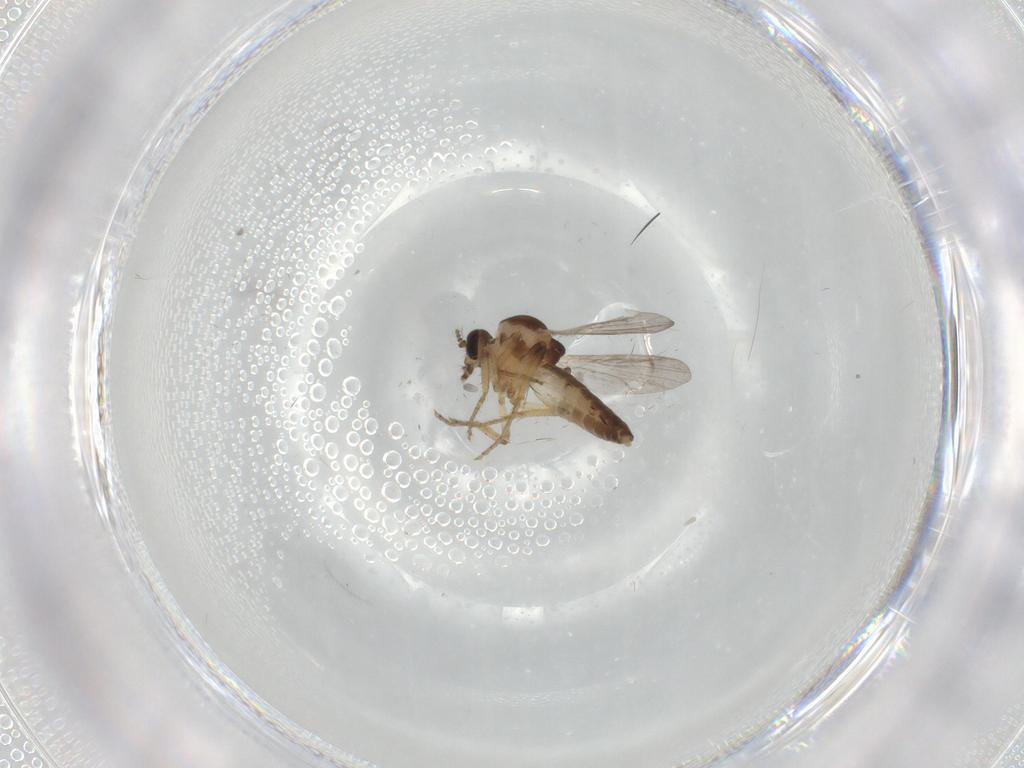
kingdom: Animalia
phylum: Arthropoda
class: Insecta
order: Diptera
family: Ceratopogonidae
